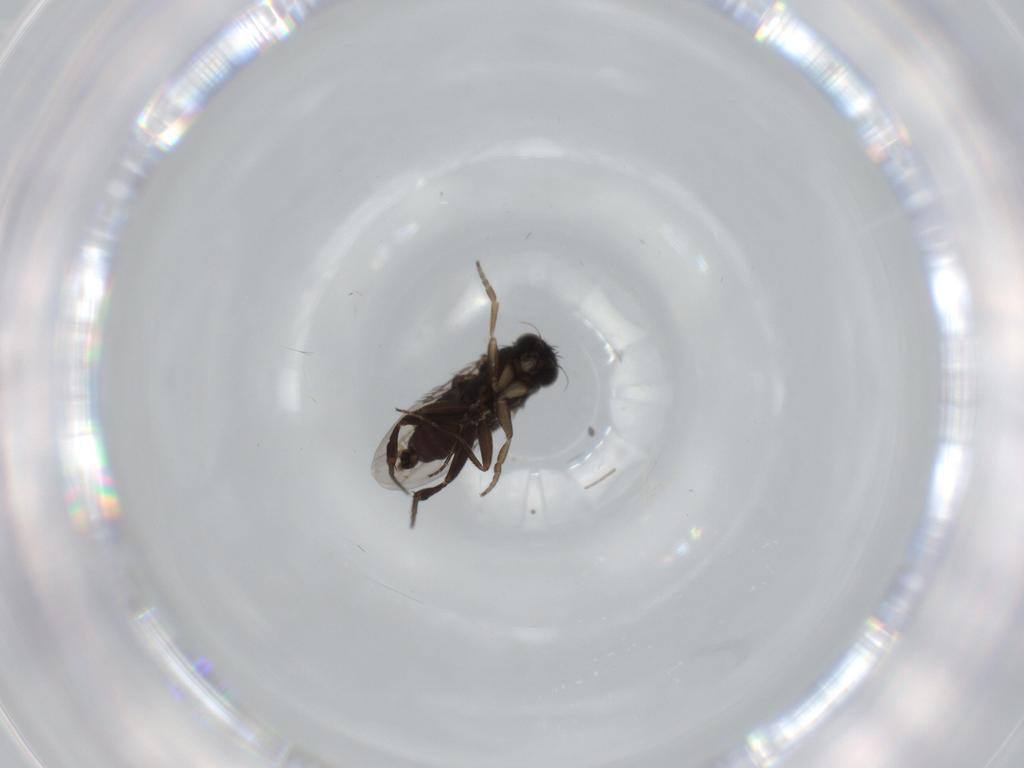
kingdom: Animalia
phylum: Arthropoda
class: Insecta
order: Diptera
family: Phoridae
